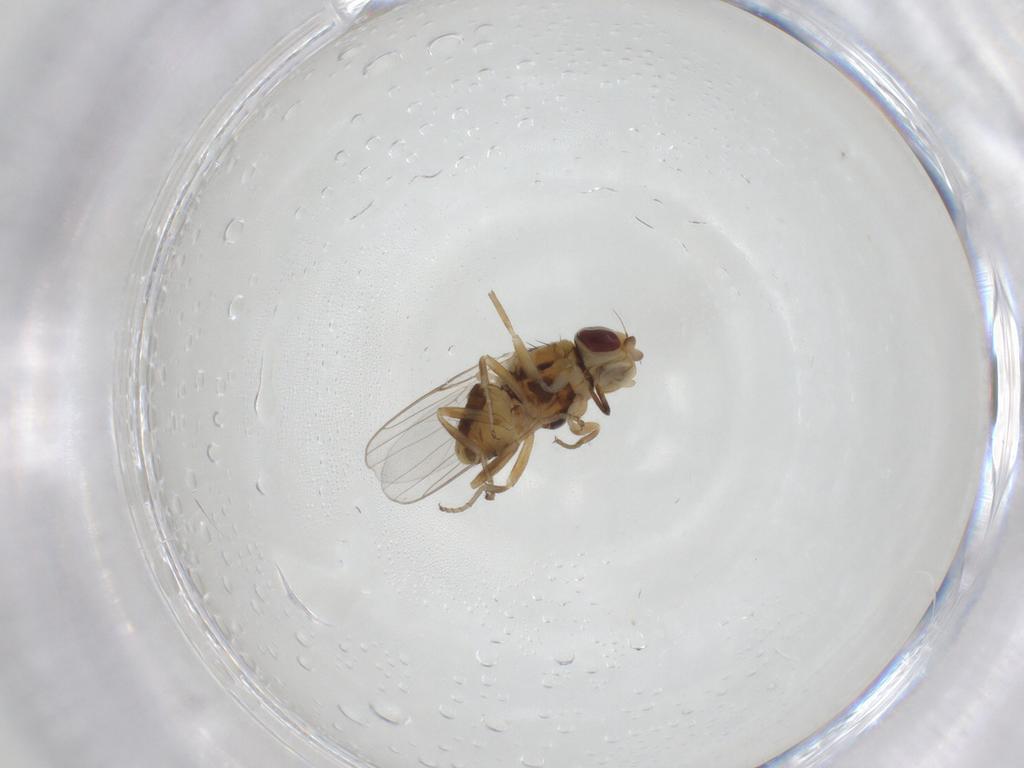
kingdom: Animalia
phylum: Arthropoda
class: Insecta
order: Diptera
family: Chloropidae
